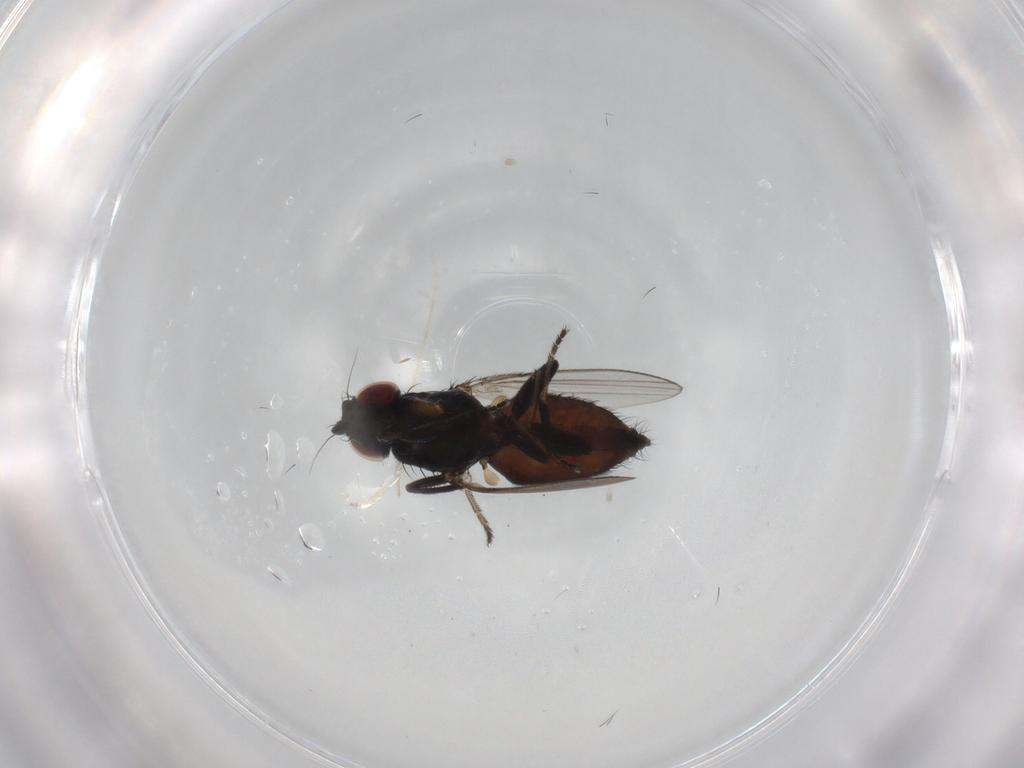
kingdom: Animalia
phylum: Arthropoda
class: Insecta
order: Diptera
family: Milichiidae
